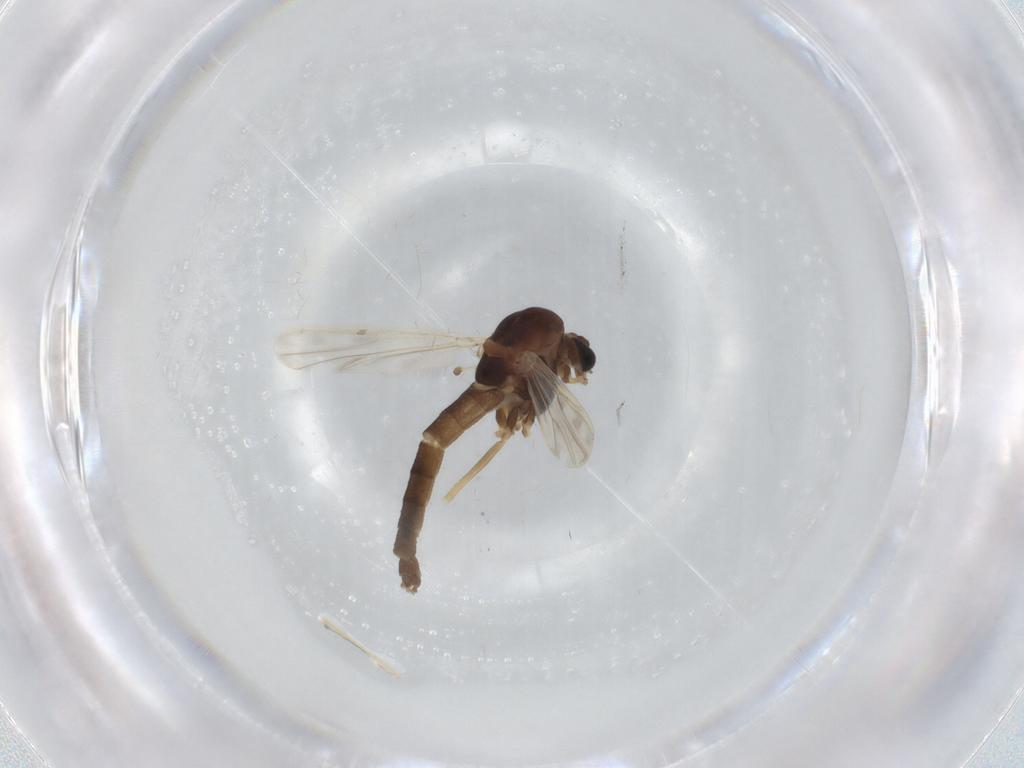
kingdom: Animalia
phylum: Arthropoda
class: Insecta
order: Diptera
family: Chironomidae
